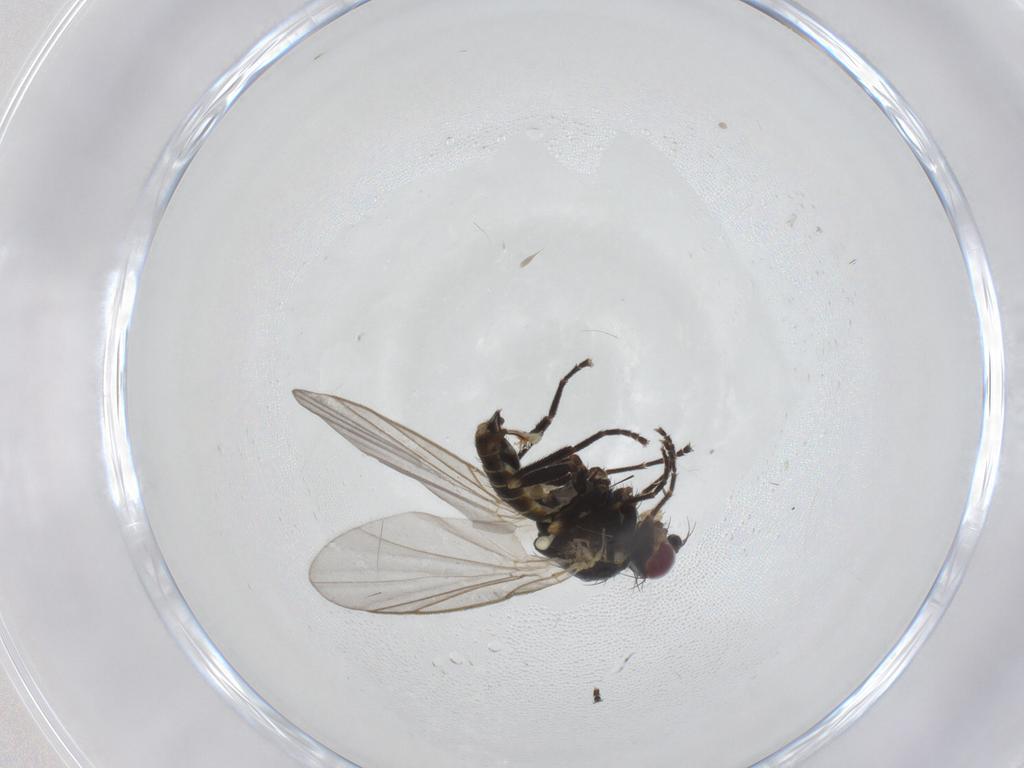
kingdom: Animalia
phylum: Arthropoda
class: Insecta
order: Diptera
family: Sciaridae
